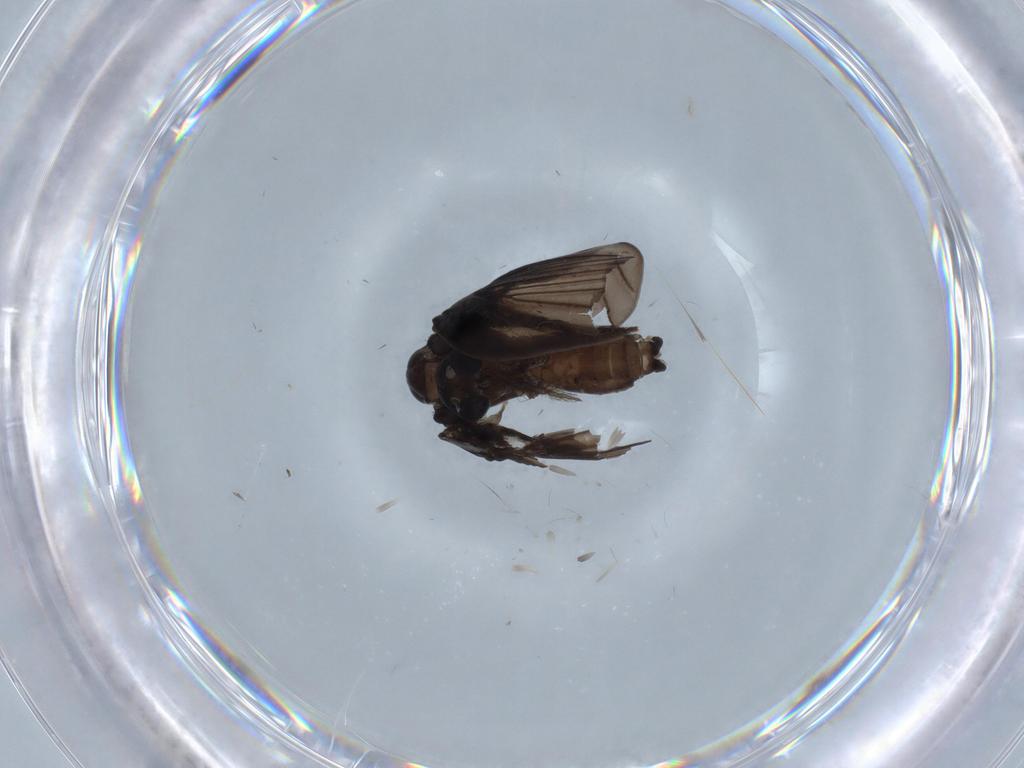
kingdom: Animalia
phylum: Arthropoda
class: Insecta
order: Diptera
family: Psychodidae
